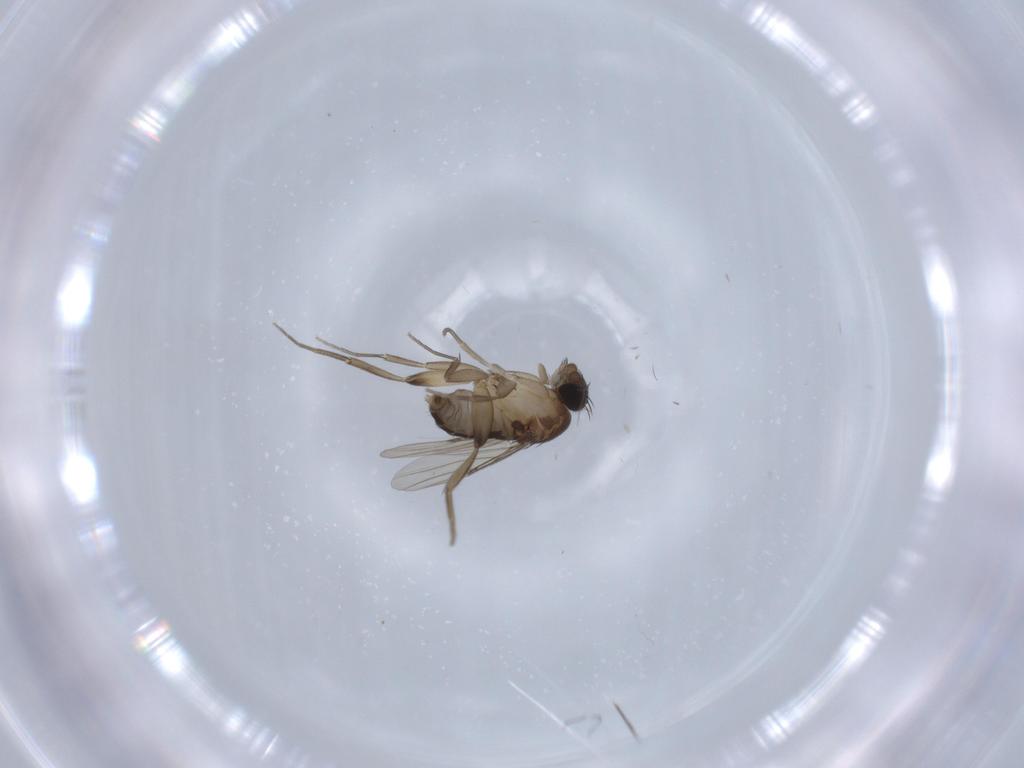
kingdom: Animalia
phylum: Arthropoda
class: Insecta
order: Diptera
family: Phoridae
